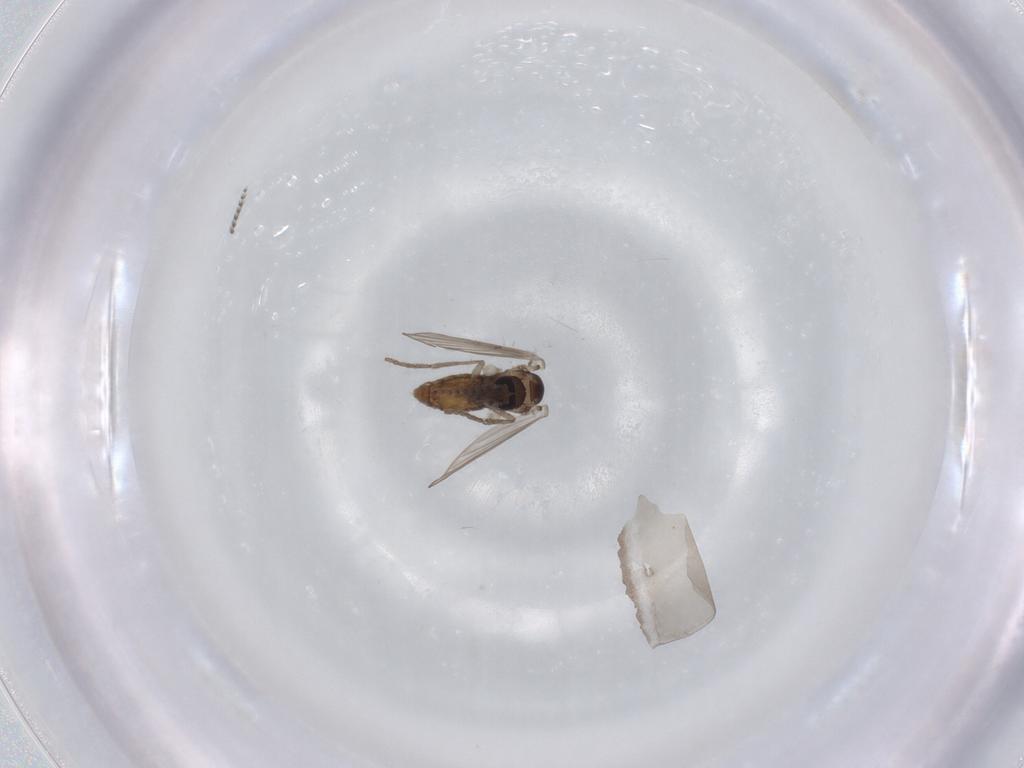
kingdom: Animalia
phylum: Arthropoda
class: Insecta
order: Diptera
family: Psychodidae
